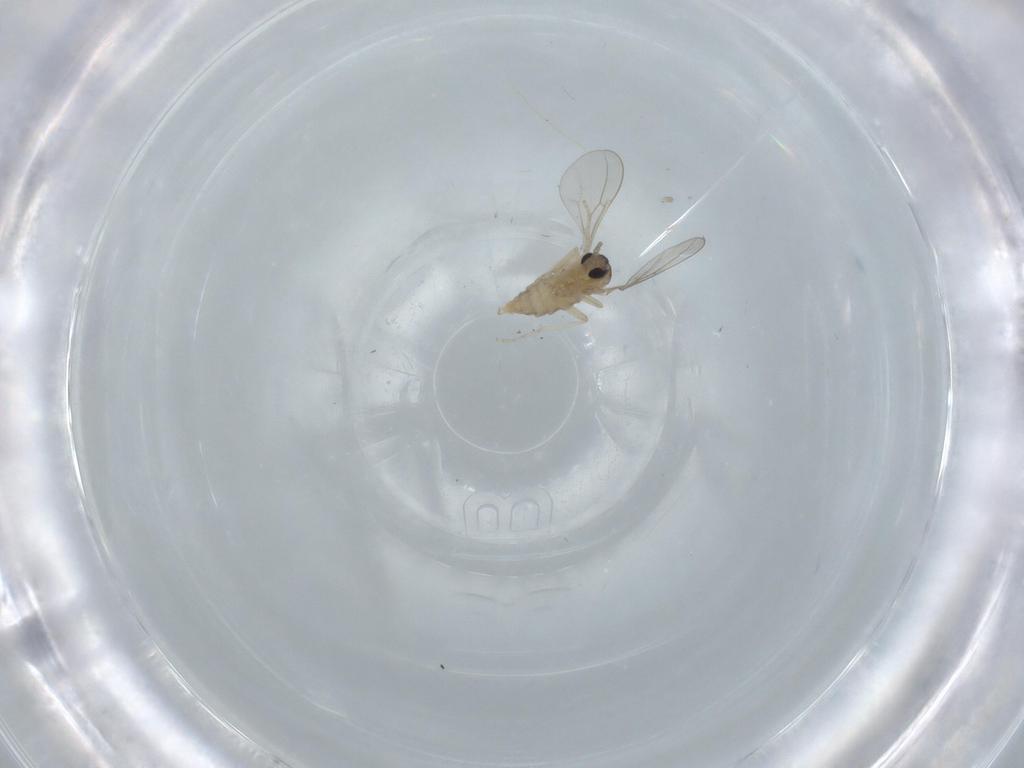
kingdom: Animalia
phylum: Arthropoda
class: Insecta
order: Diptera
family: Cecidomyiidae
